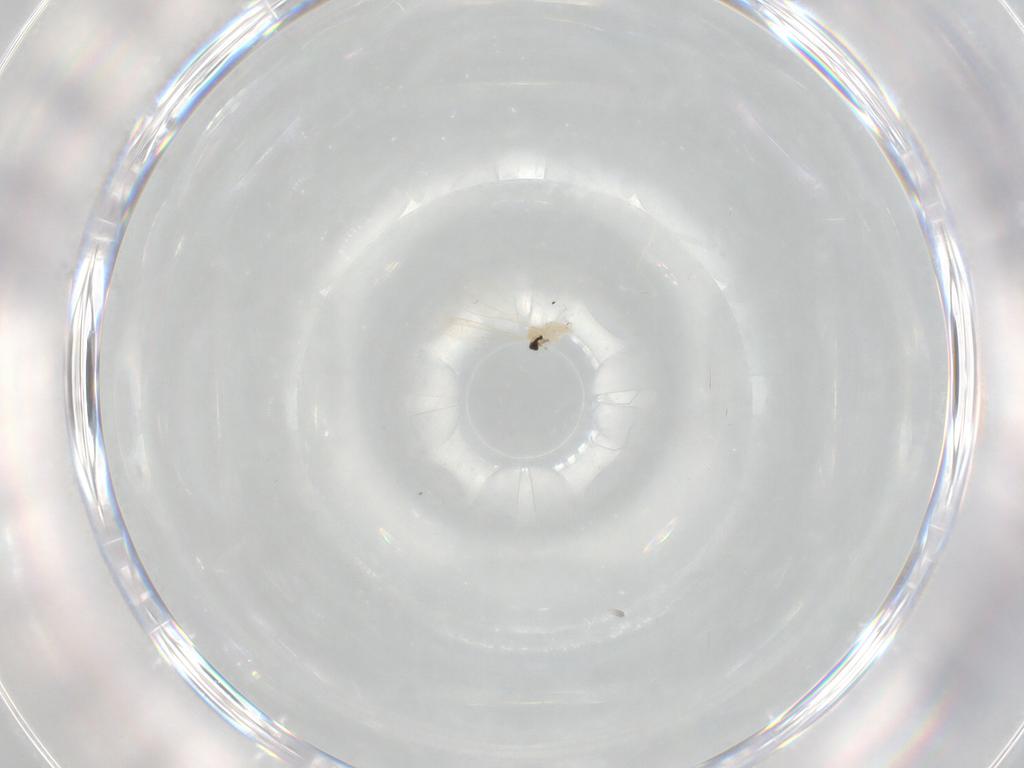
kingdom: Animalia
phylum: Arthropoda
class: Insecta
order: Diptera
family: Cecidomyiidae
